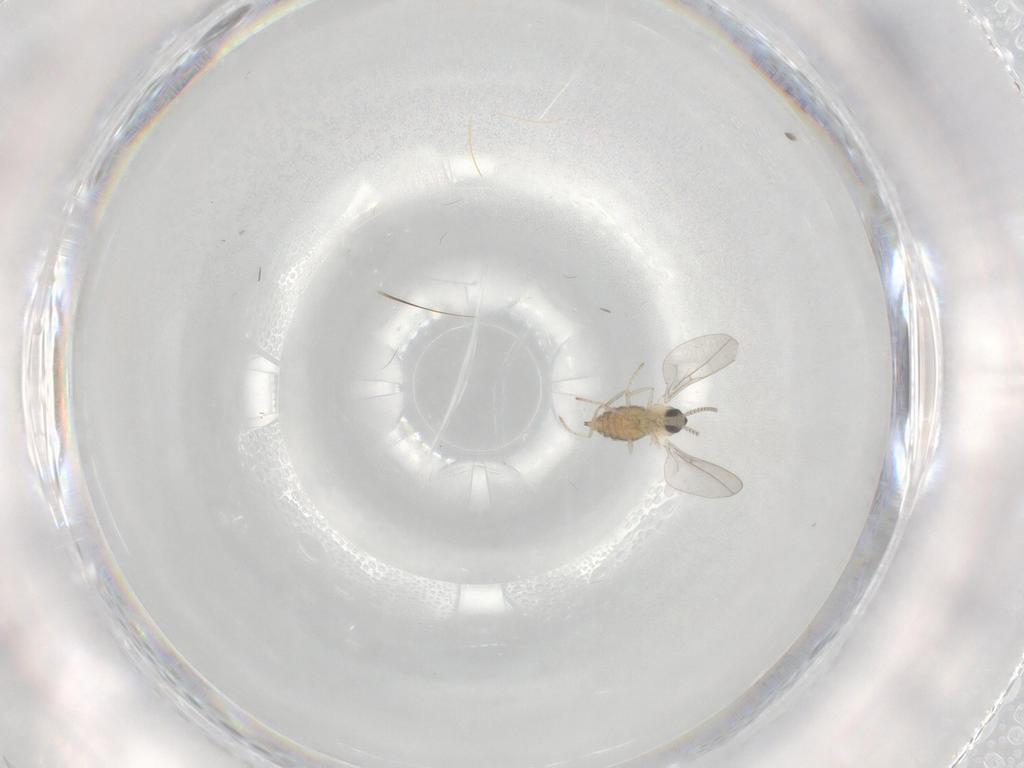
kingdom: Animalia
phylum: Arthropoda
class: Insecta
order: Diptera
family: Cecidomyiidae
